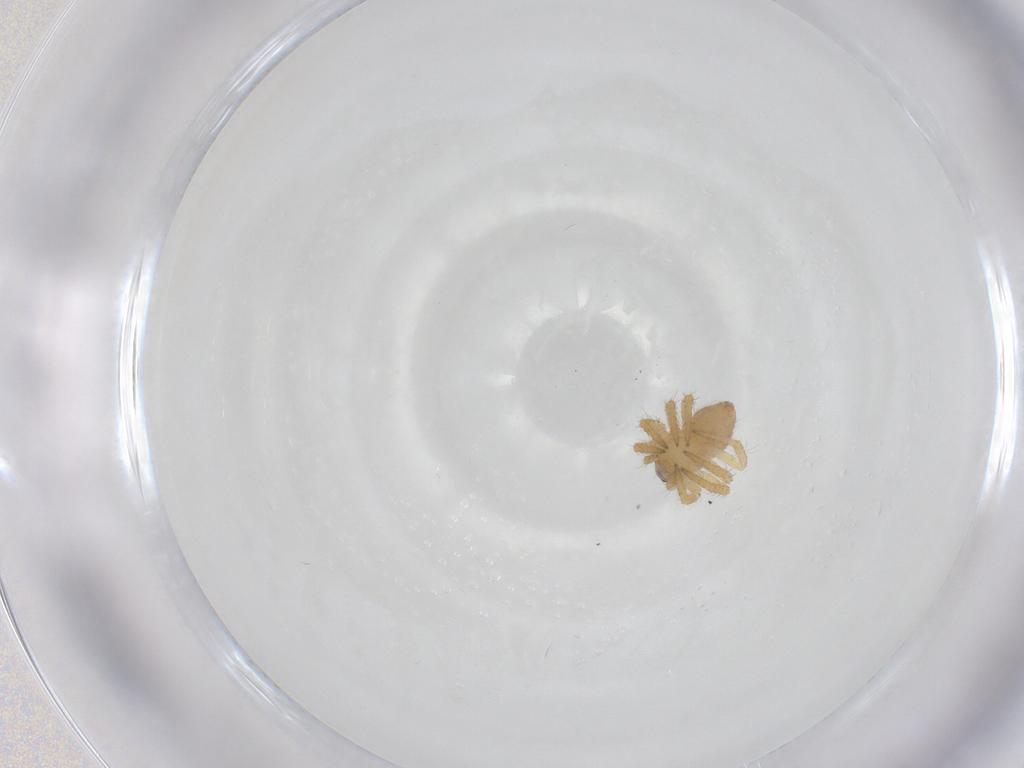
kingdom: Animalia
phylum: Arthropoda
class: Arachnida
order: Araneae
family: Theridiidae
